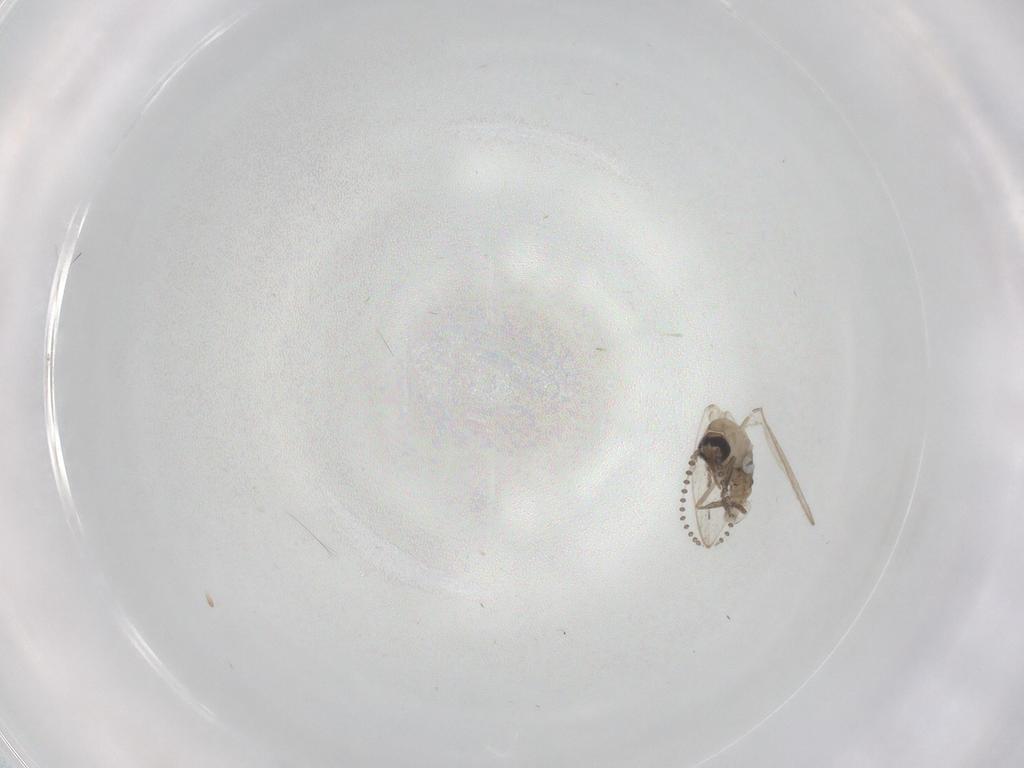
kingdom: Animalia
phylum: Arthropoda
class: Insecta
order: Diptera
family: Psychodidae
